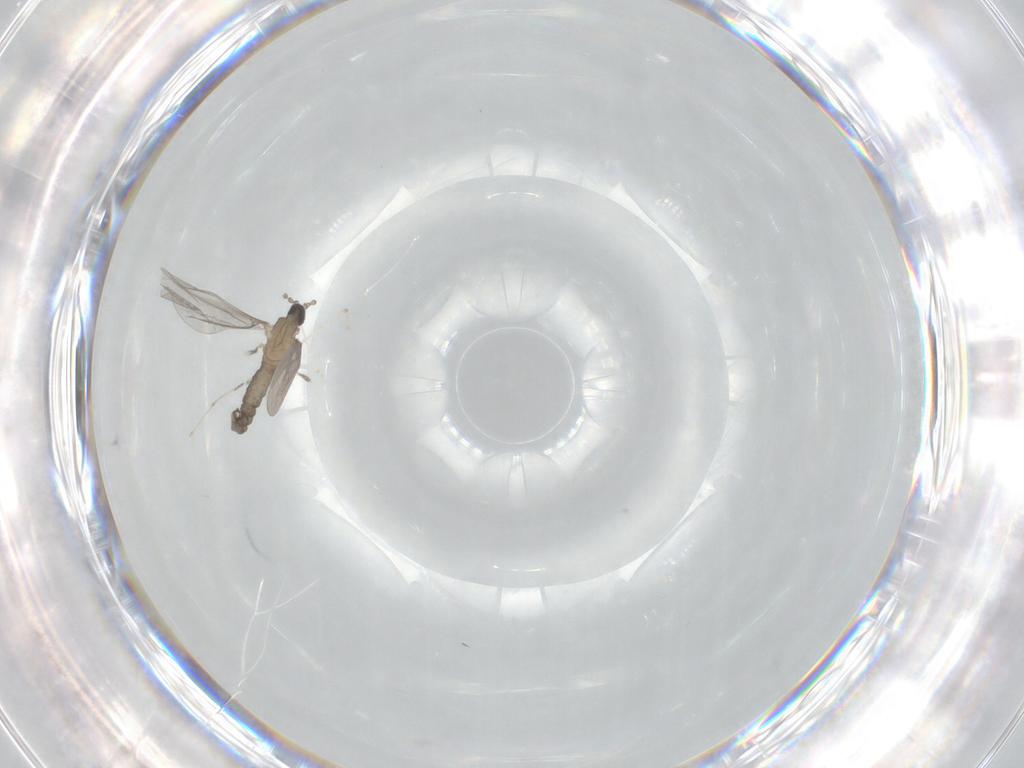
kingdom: Animalia
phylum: Arthropoda
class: Insecta
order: Diptera
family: Cecidomyiidae
